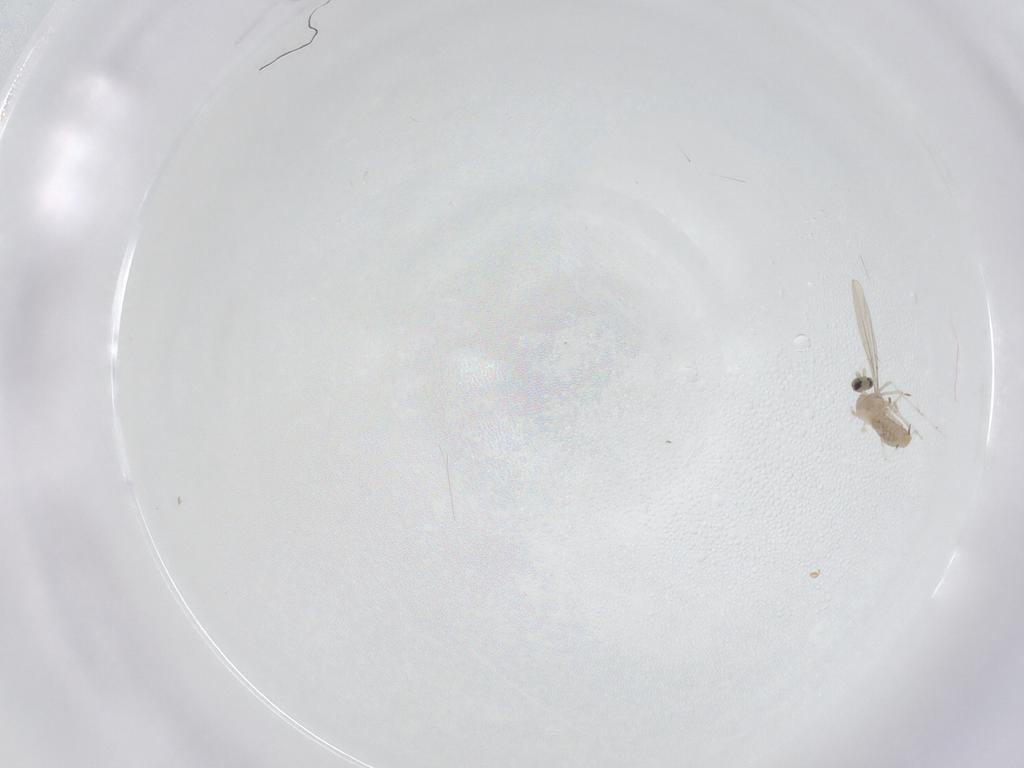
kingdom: Animalia
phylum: Arthropoda
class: Insecta
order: Diptera
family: Cecidomyiidae
